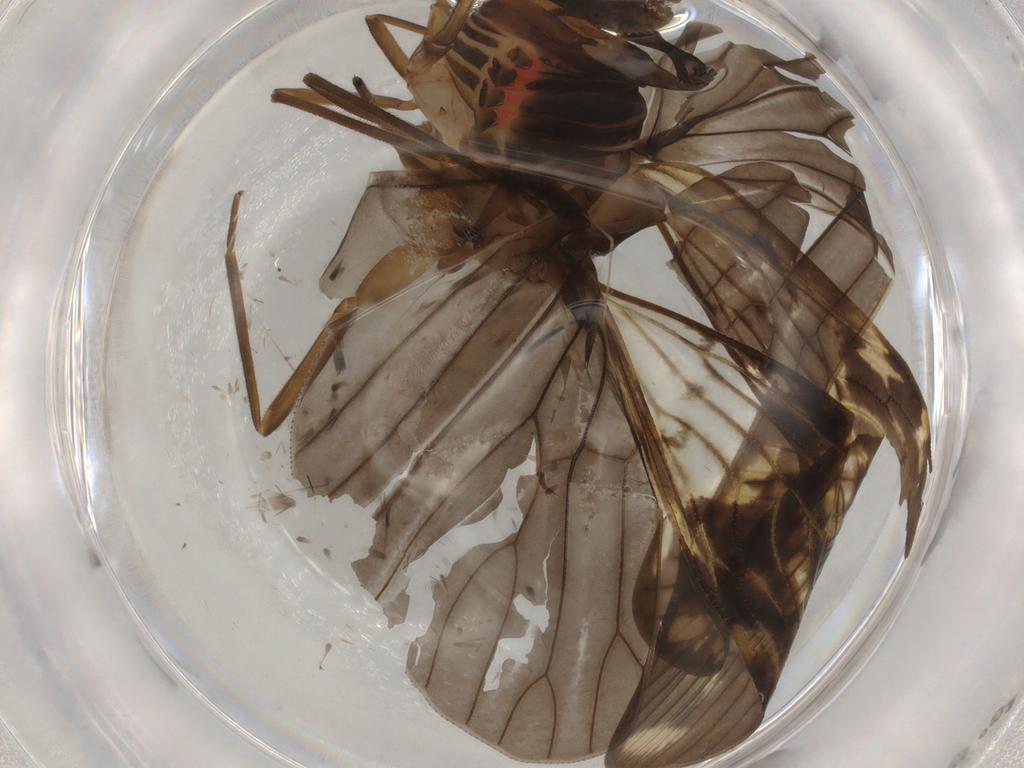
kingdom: Animalia
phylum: Arthropoda
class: Insecta
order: Hemiptera
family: Cixiidae
